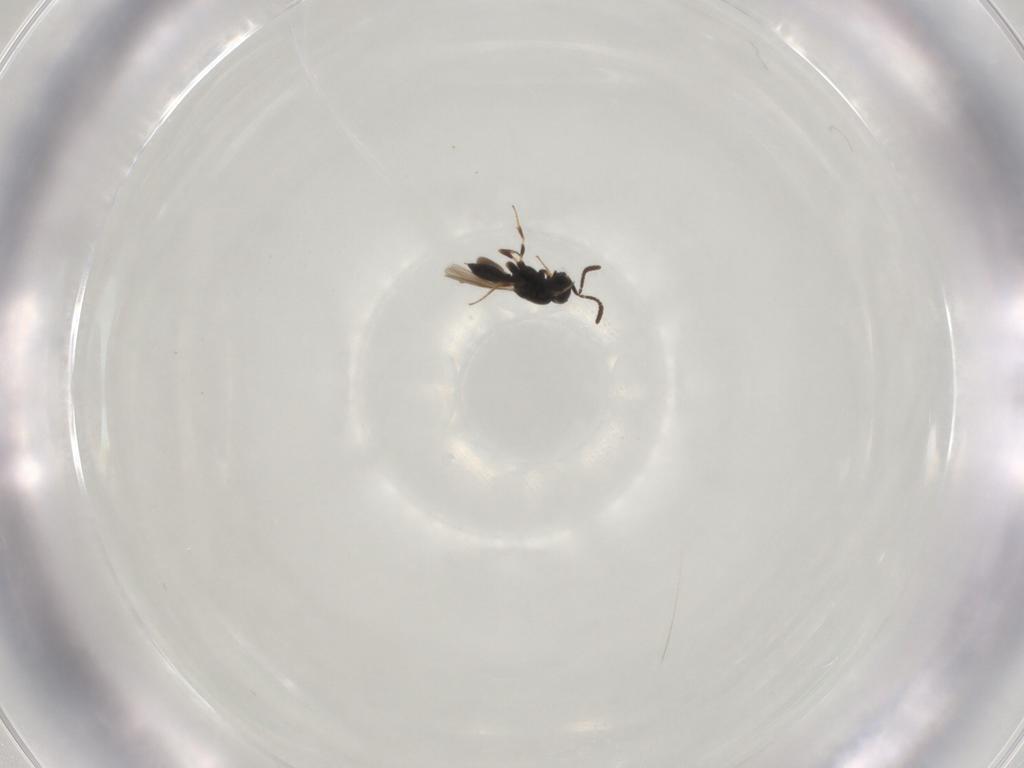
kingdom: Animalia
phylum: Arthropoda
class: Insecta
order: Hymenoptera
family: Scelionidae
